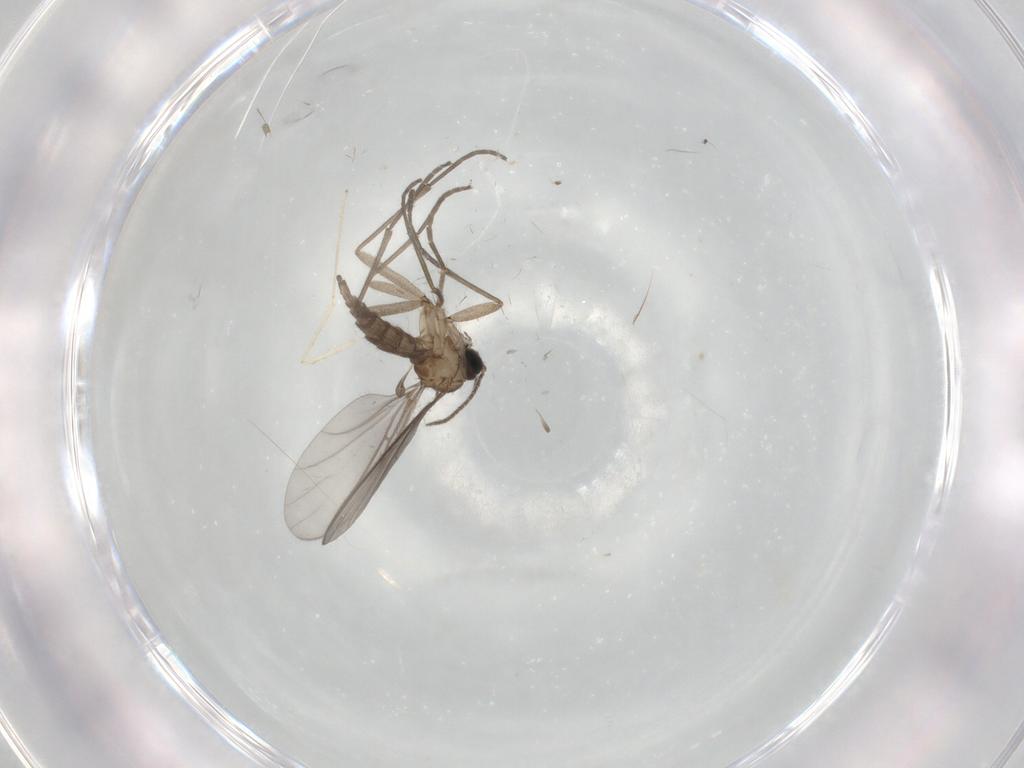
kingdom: Animalia
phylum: Arthropoda
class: Insecta
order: Diptera
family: Cecidomyiidae
